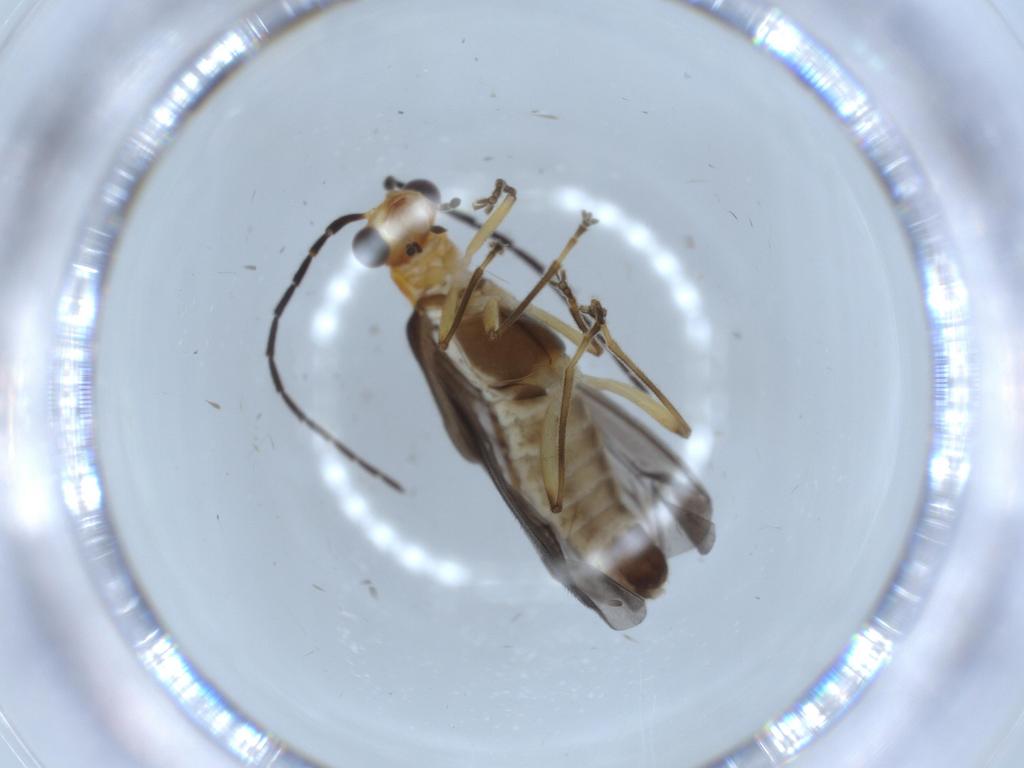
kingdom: Animalia
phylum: Arthropoda
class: Insecta
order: Coleoptera
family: Cantharidae
